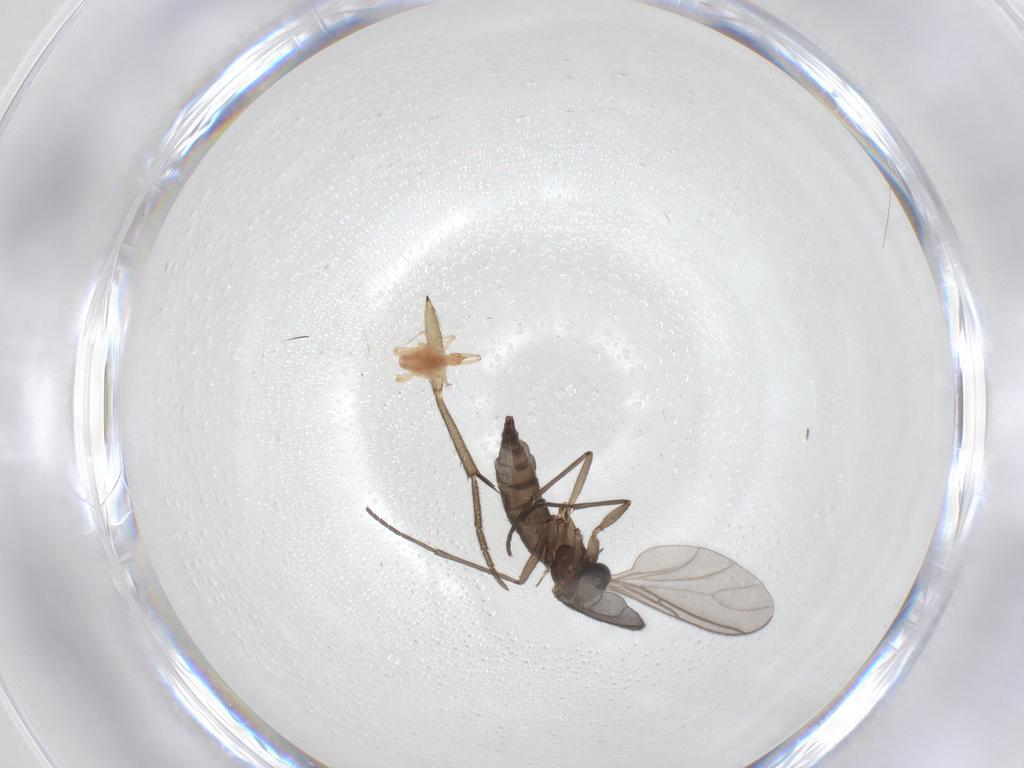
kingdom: Animalia
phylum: Arthropoda
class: Insecta
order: Diptera
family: Mycetophilidae
